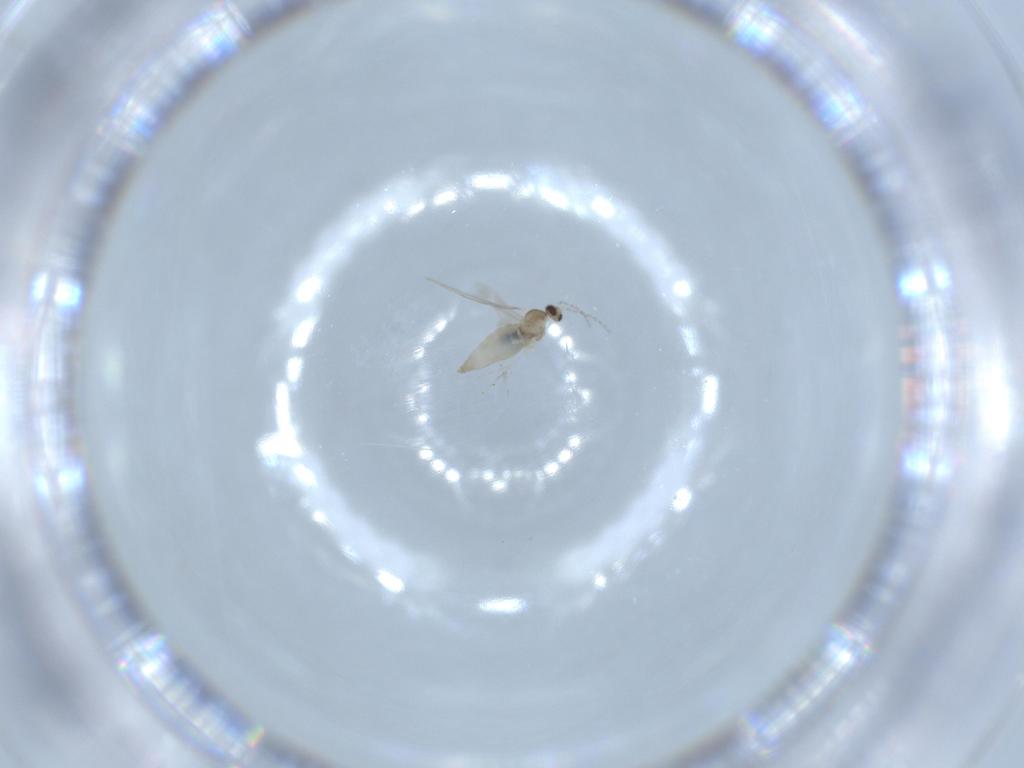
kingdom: Animalia
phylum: Arthropoda
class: Insecta
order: Diptera
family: Cecidomyiidae
